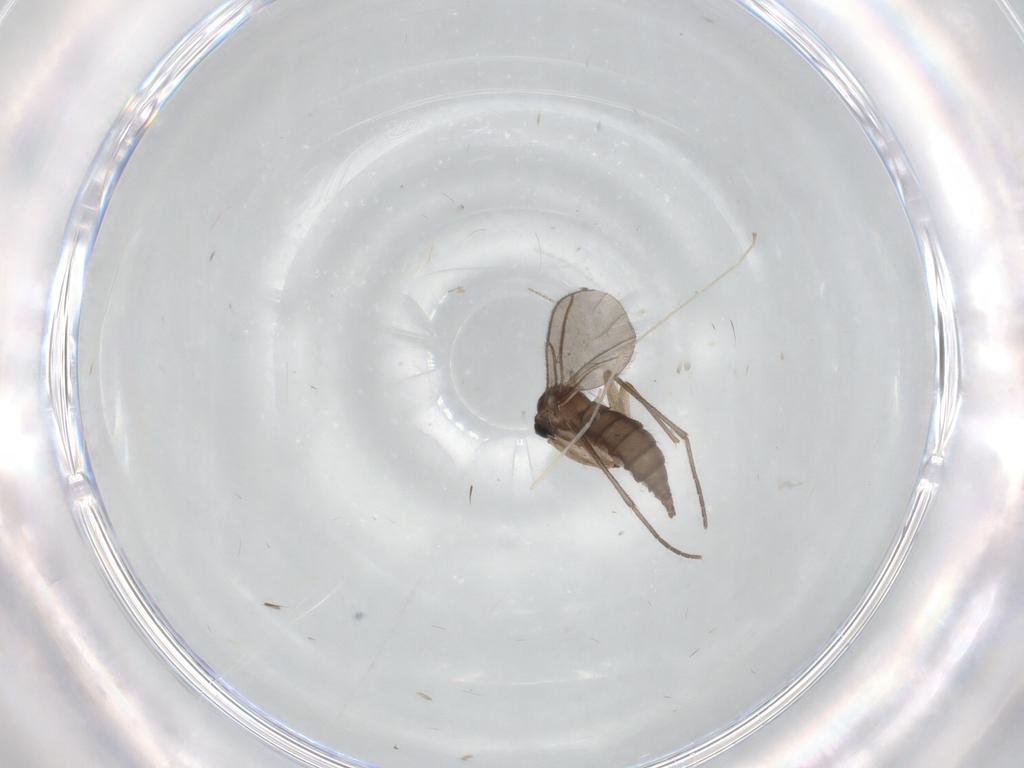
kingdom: Animalia
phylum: Arthropoda
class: Insecta
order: Diptera
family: Sciaridae
